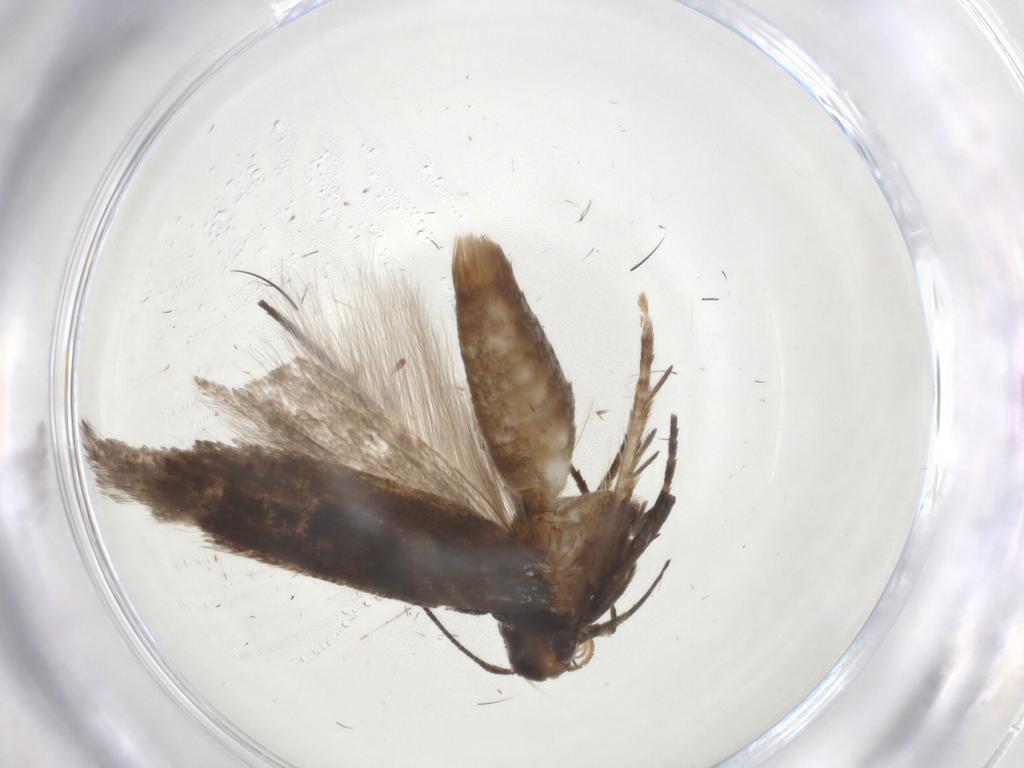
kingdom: Animalia
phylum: Arthropoda
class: Insecta
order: Lepidoptera
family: Gelechiidae
